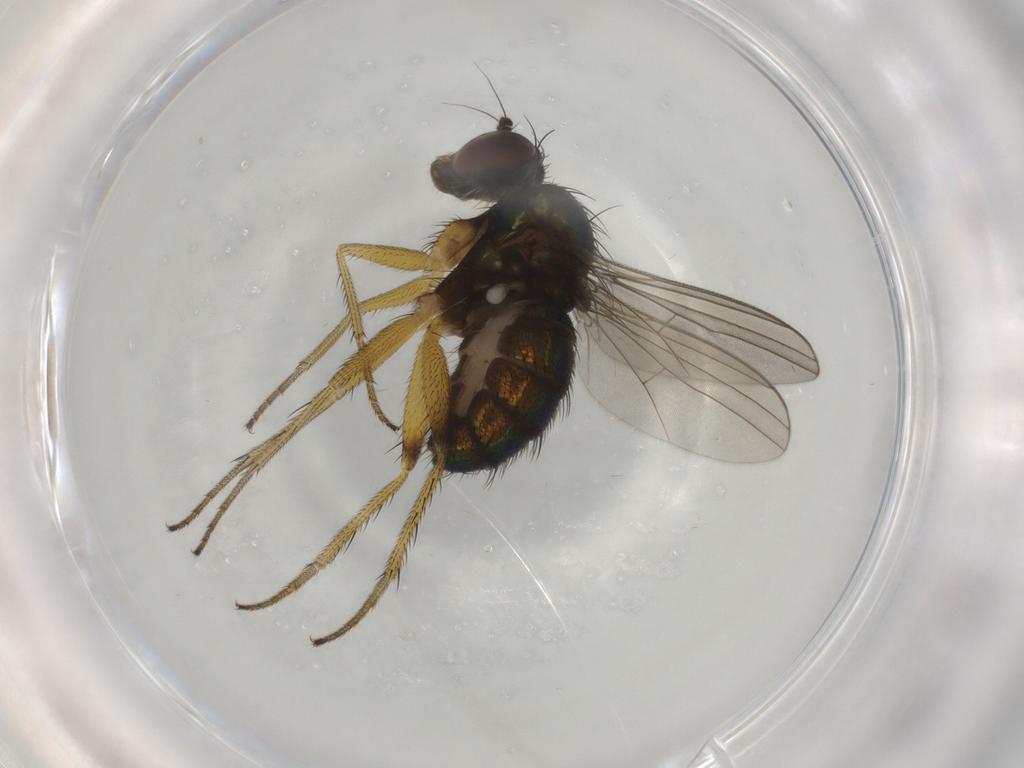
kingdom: Animalia
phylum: Arthropoda
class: Insecta
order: Diptera
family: Dolichopodidae
